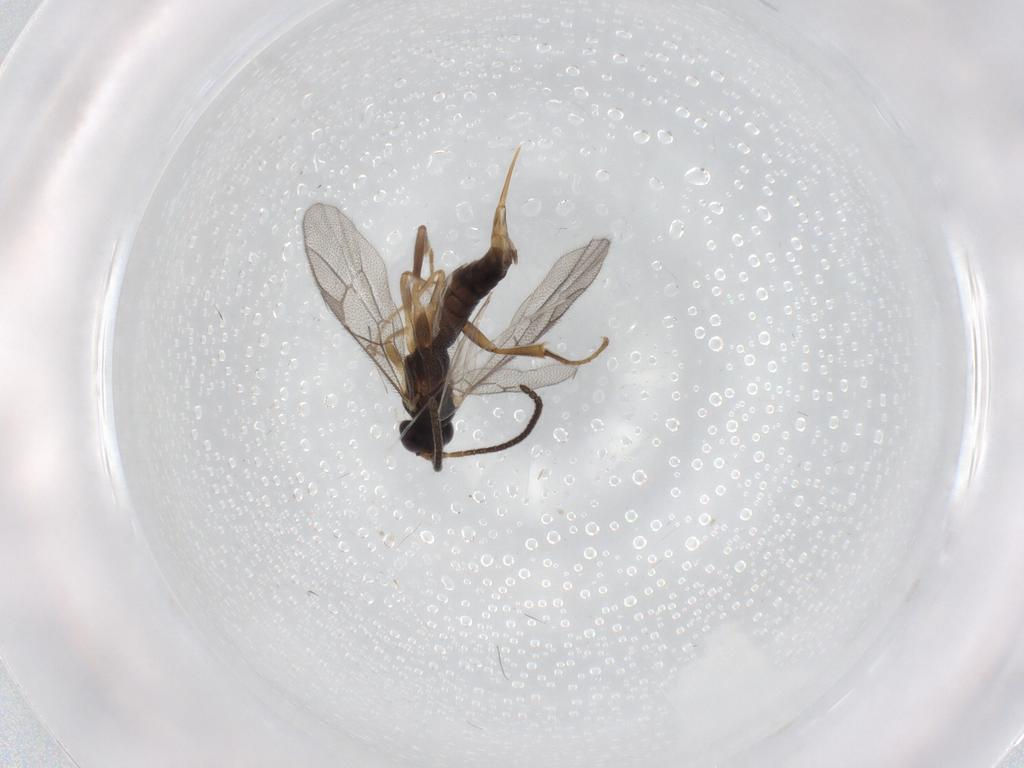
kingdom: Animalia
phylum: Arthropoda
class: Insecta
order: Hymenoptera
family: Ichneumonidae
